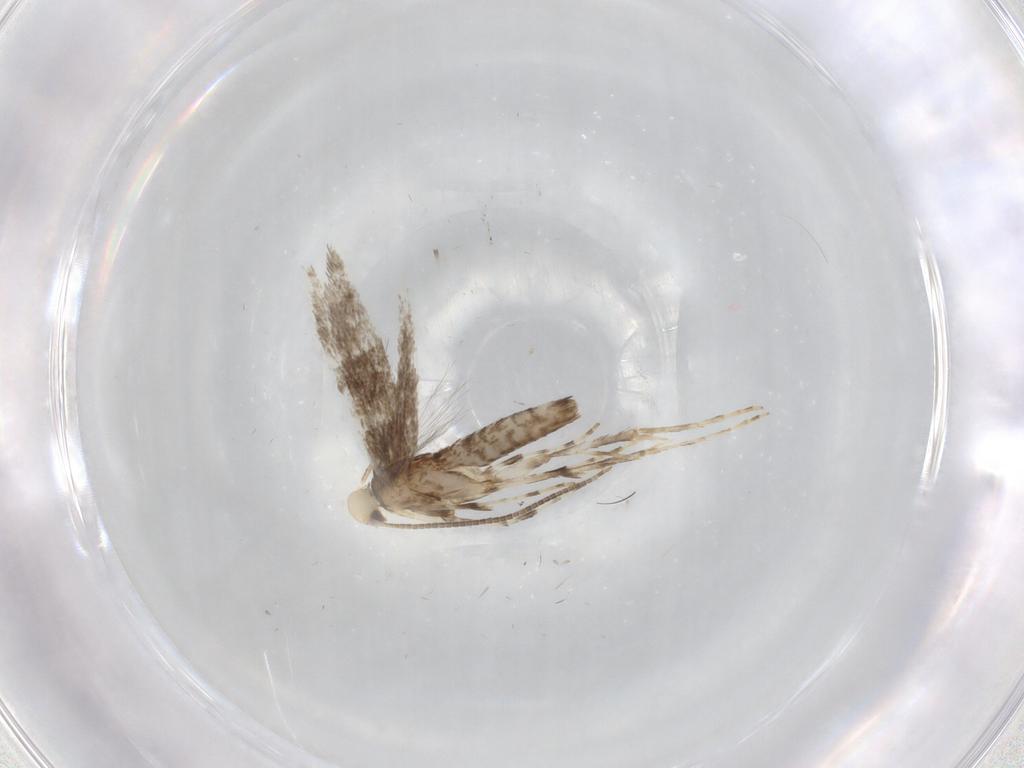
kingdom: Animalia
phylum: Arthropoda
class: Insecta
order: Lepidoptera
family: Gracillariidae
